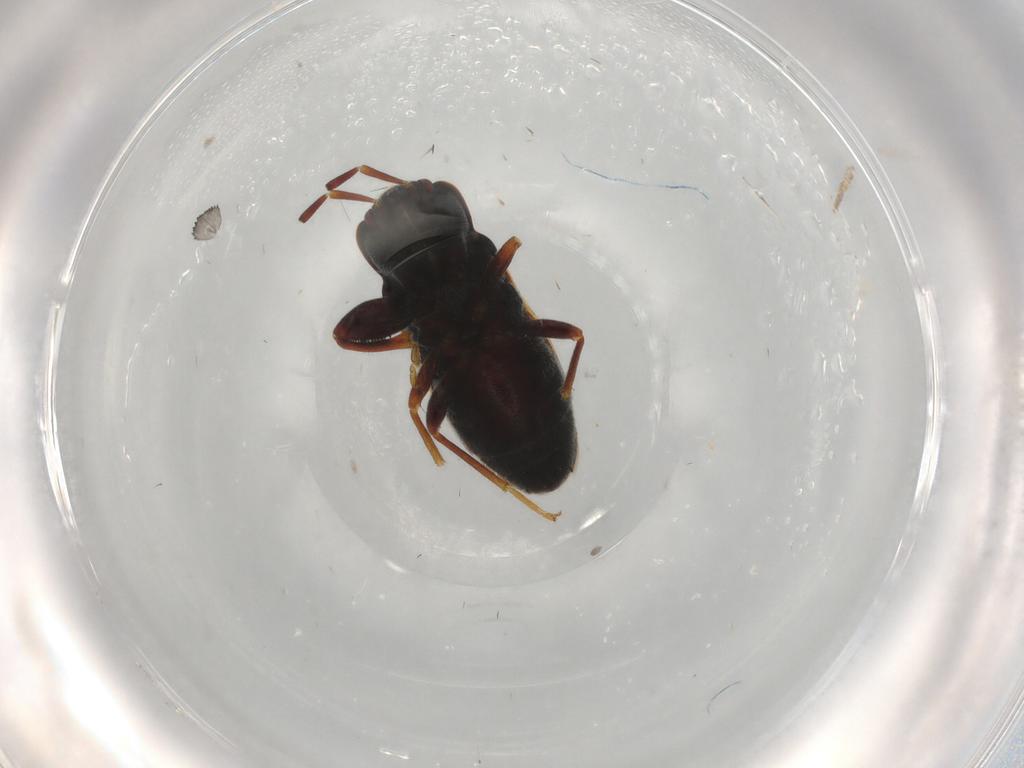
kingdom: Animalia
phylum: Arthropoda
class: Insecta
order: Hemiptera
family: Rhyparochromidae
